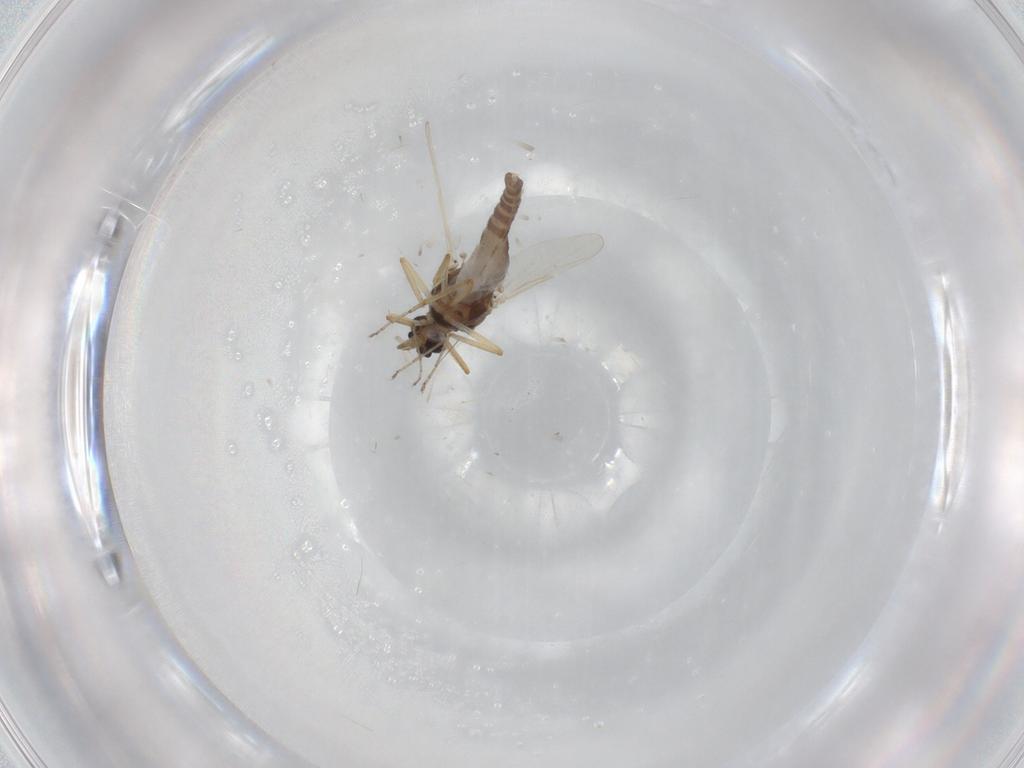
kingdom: Animalia
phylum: Arthropoda
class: Insecta
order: Diptera
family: Ceratopogonidae
